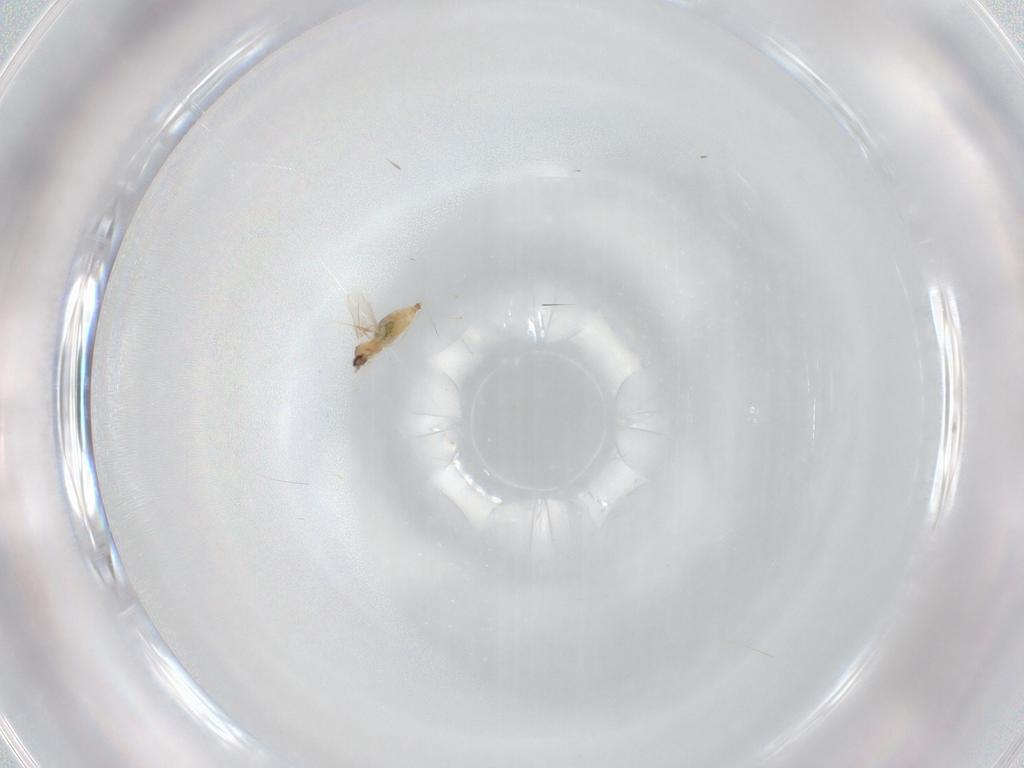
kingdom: Animalia
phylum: Arthropoda
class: Insecta
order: Diptera
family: Cecidomyiidae
